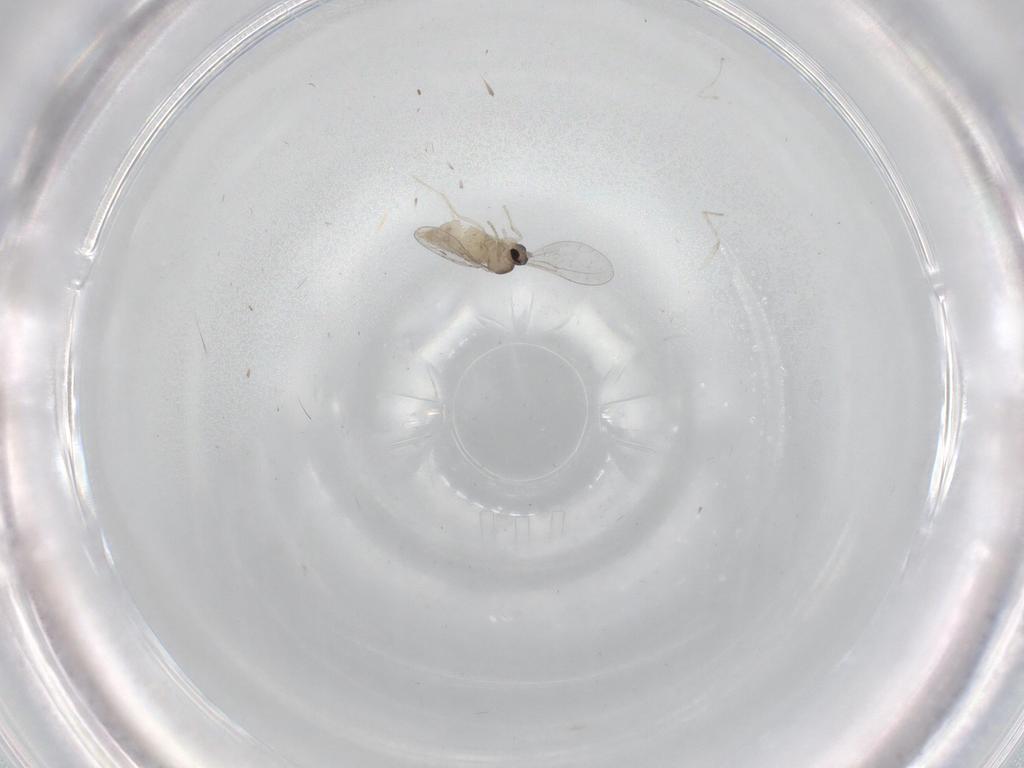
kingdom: Animalia
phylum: Arthropoda
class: Insecta
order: Diptera
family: Cecidomyiidae
